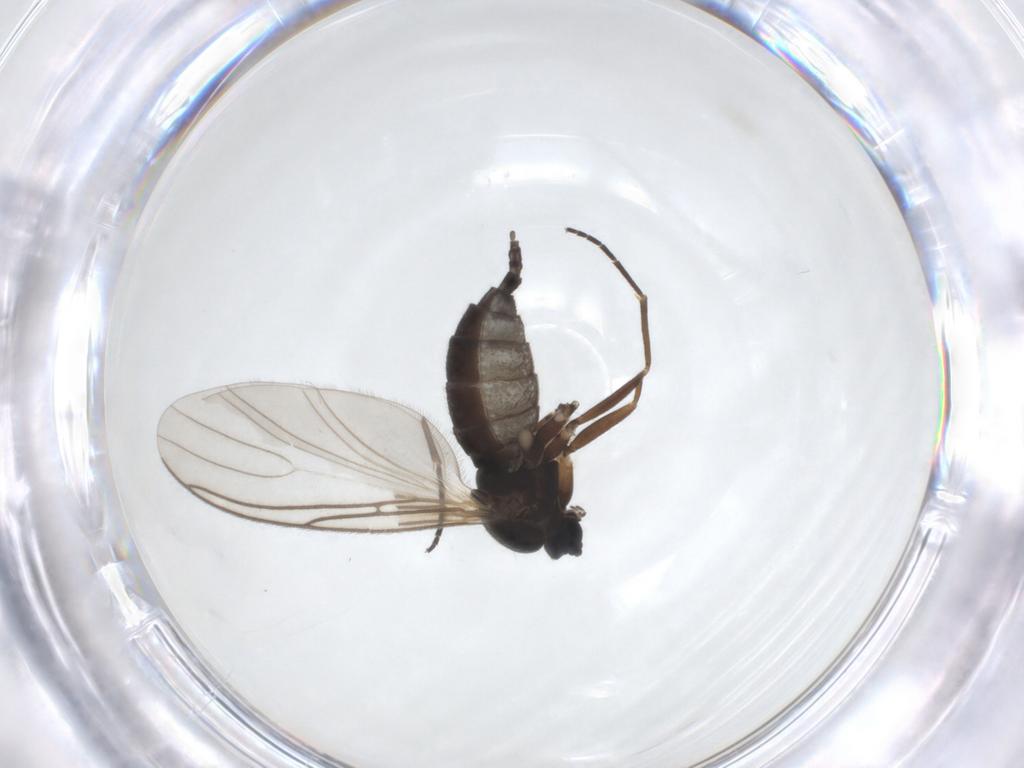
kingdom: Animalia
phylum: Arthropoda
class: Insecta
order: Diptera
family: Sciaridae
